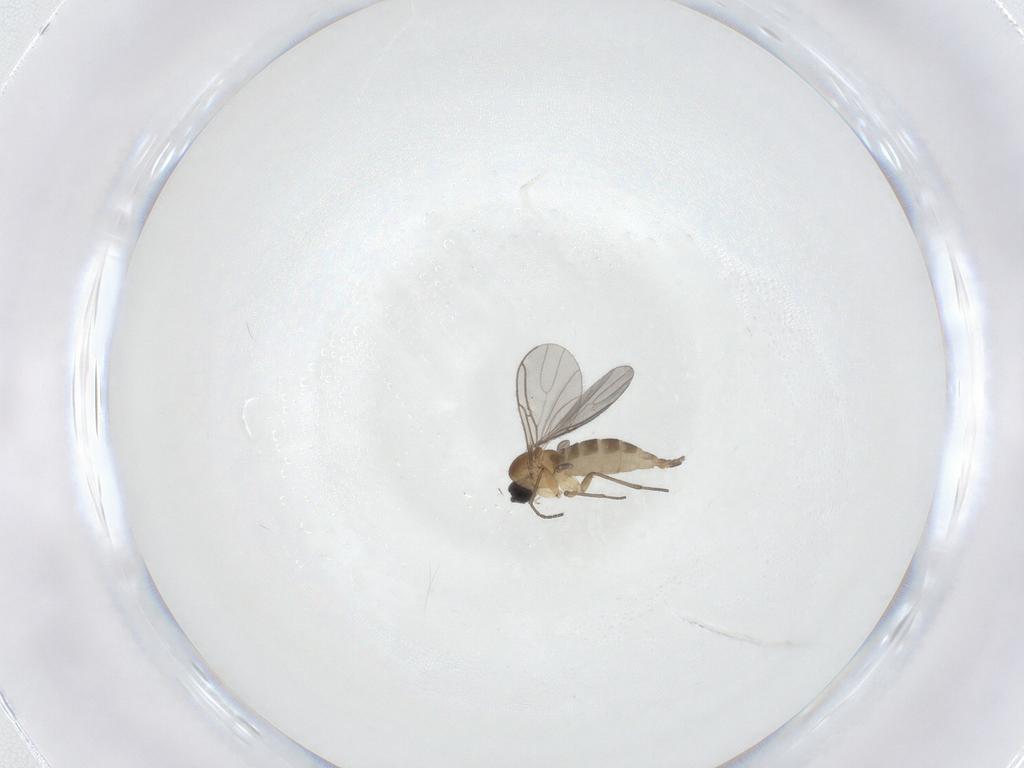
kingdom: Animalia
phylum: Arthropoda
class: Insecta
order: Diptera
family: Sciaridae
